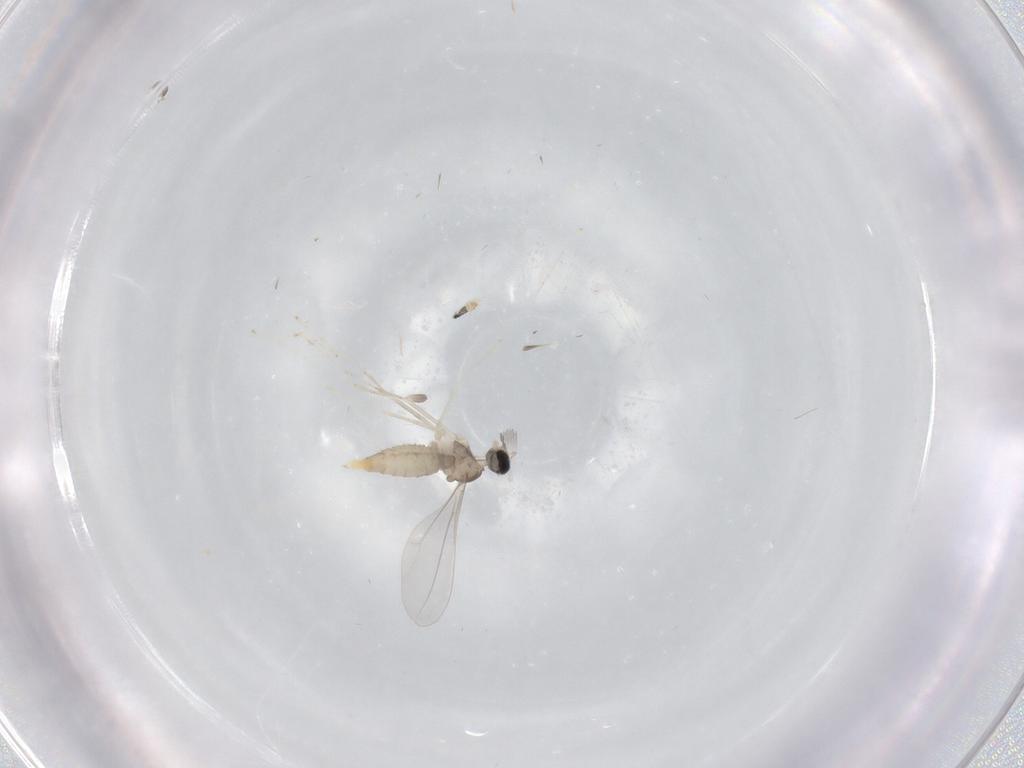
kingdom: Animalia
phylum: Arthropoda
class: Insecta
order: Diptera
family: Cecidomyiidae
